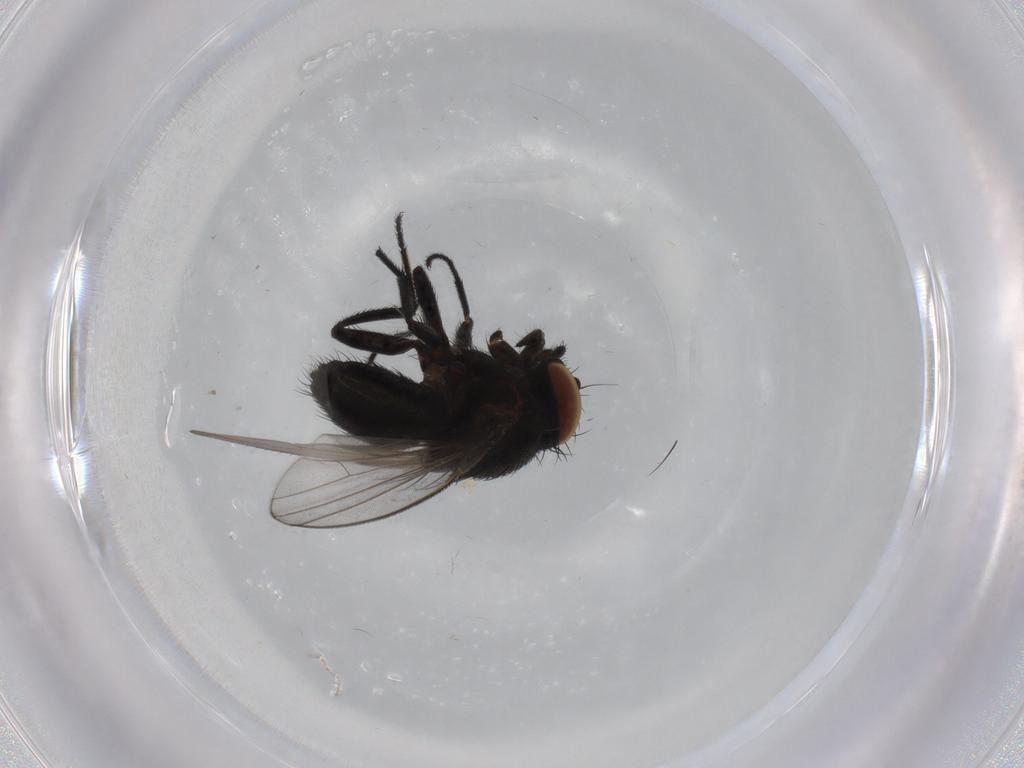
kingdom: Animalia
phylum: Arthropoda
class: Insecta
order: Diptera
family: Milichiidae
